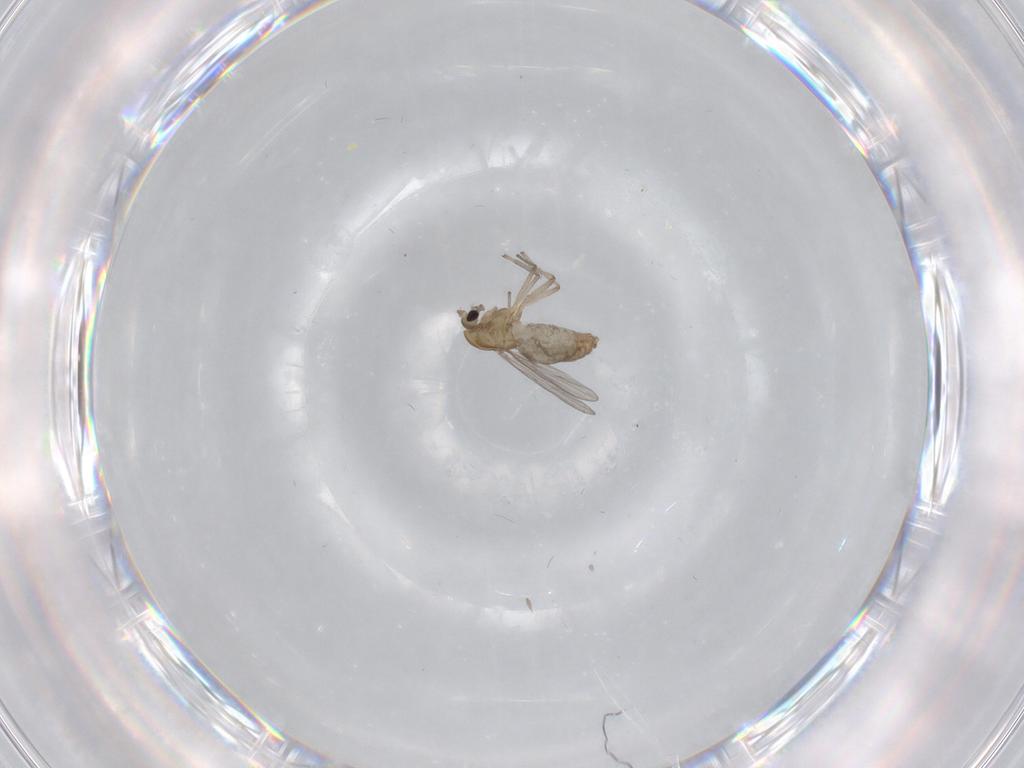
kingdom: Animalia
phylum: Arthropoda
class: Insecta
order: Diptera
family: Chironomidae
